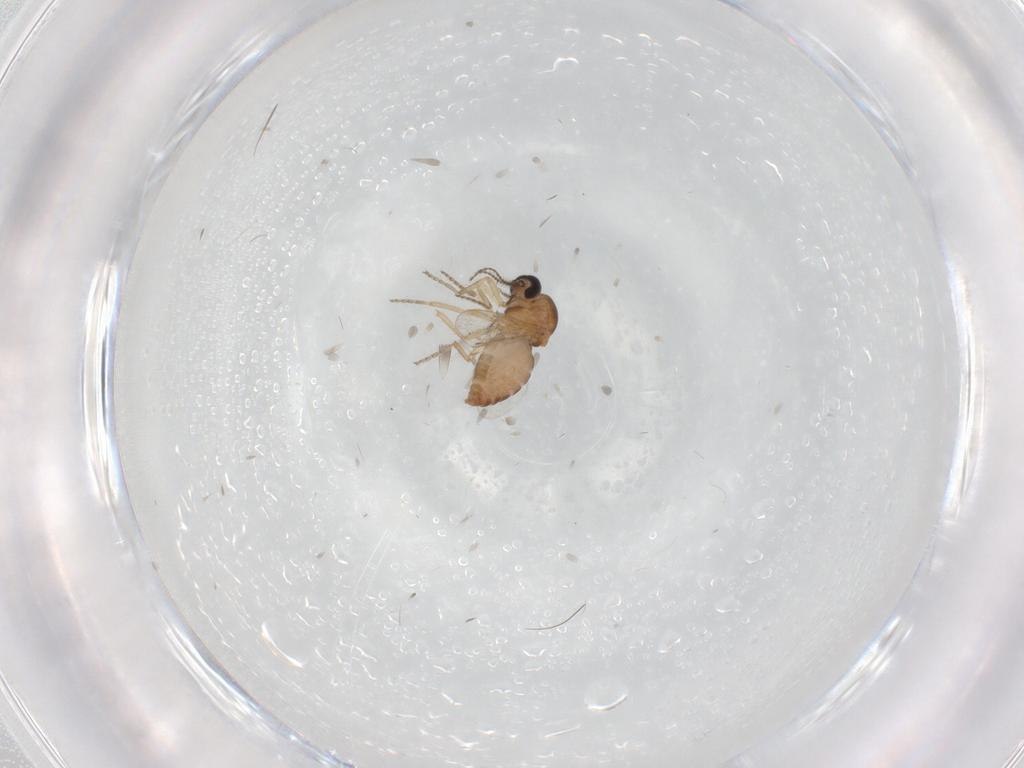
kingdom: Animalia
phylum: Arthropoda
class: Insecta
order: Diptera
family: Ceratopogonidae
